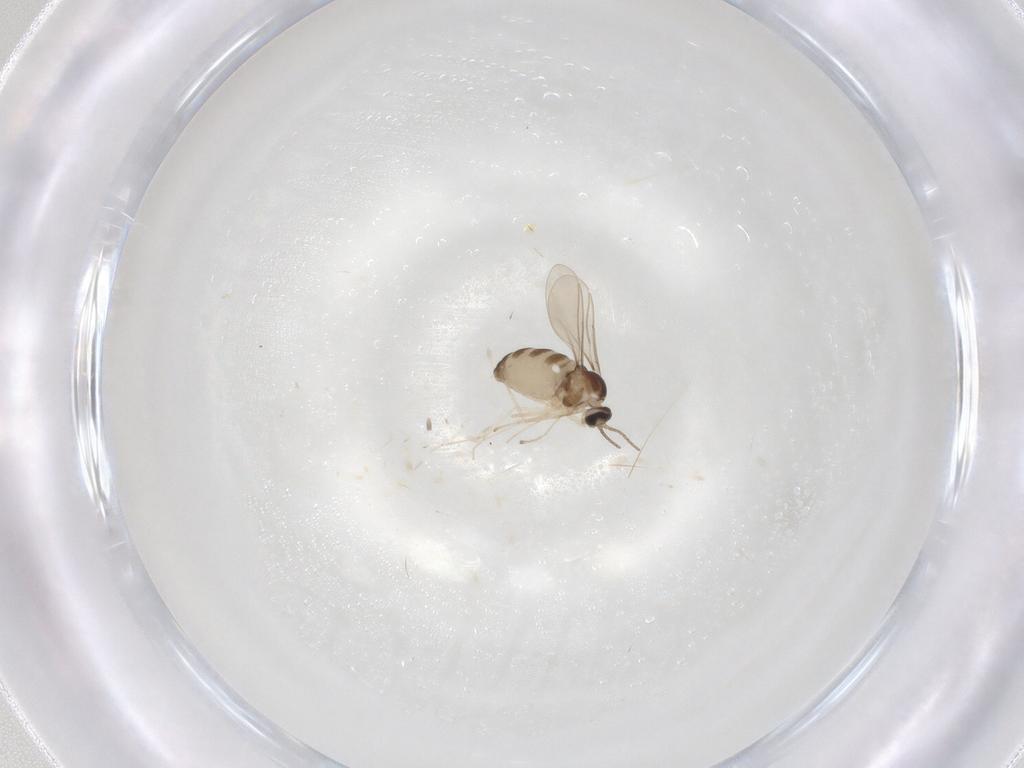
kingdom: Animalia
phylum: Arthropoda
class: Insecta
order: Diptera
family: Cecidomyiidae
